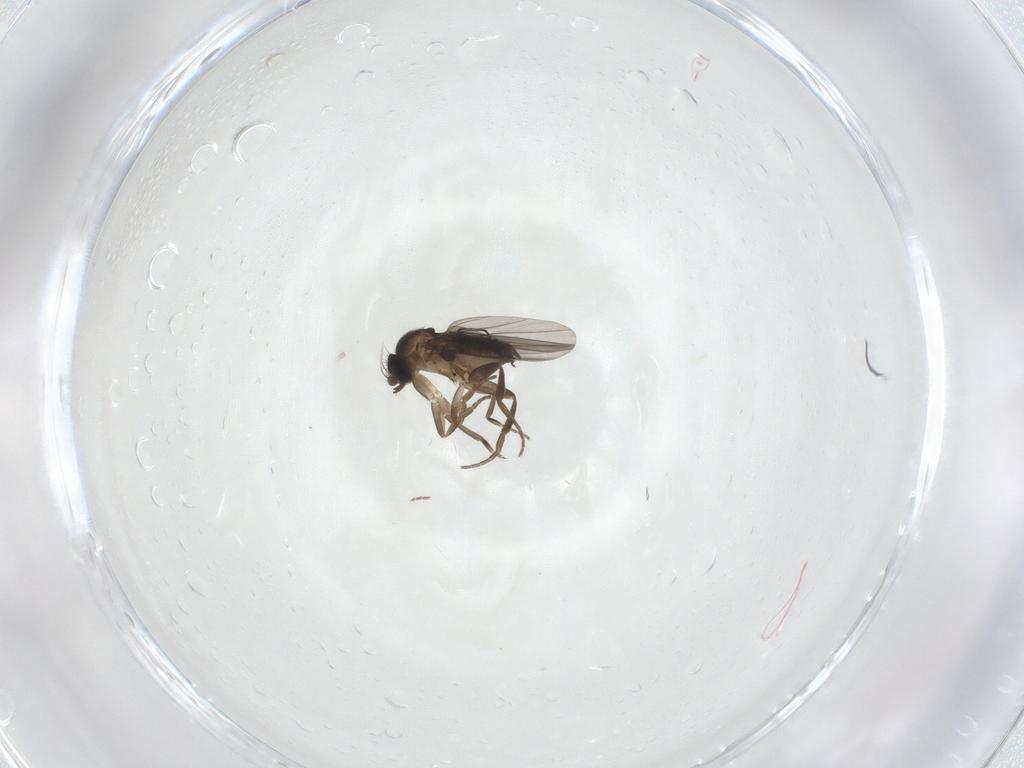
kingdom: Animalia
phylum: Arthropoda
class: Insecta
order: Diptera
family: Phoridae
